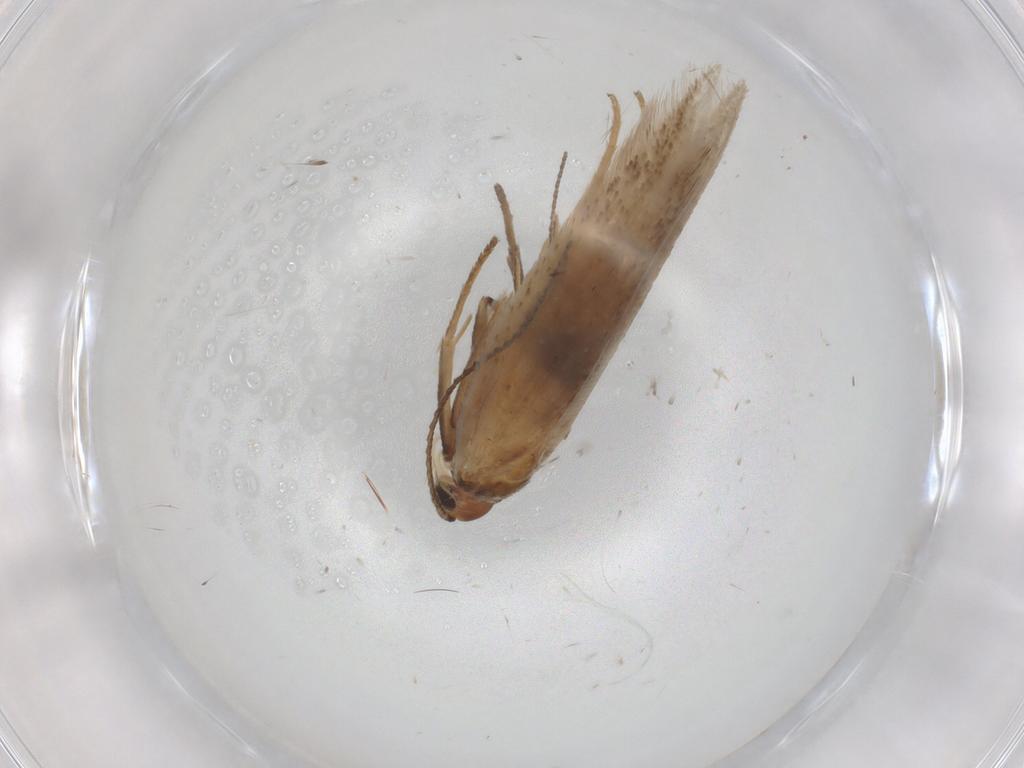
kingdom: Animalia
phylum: Arthropoda
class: Insecta
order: Lepidoptera
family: Gelechiidae
